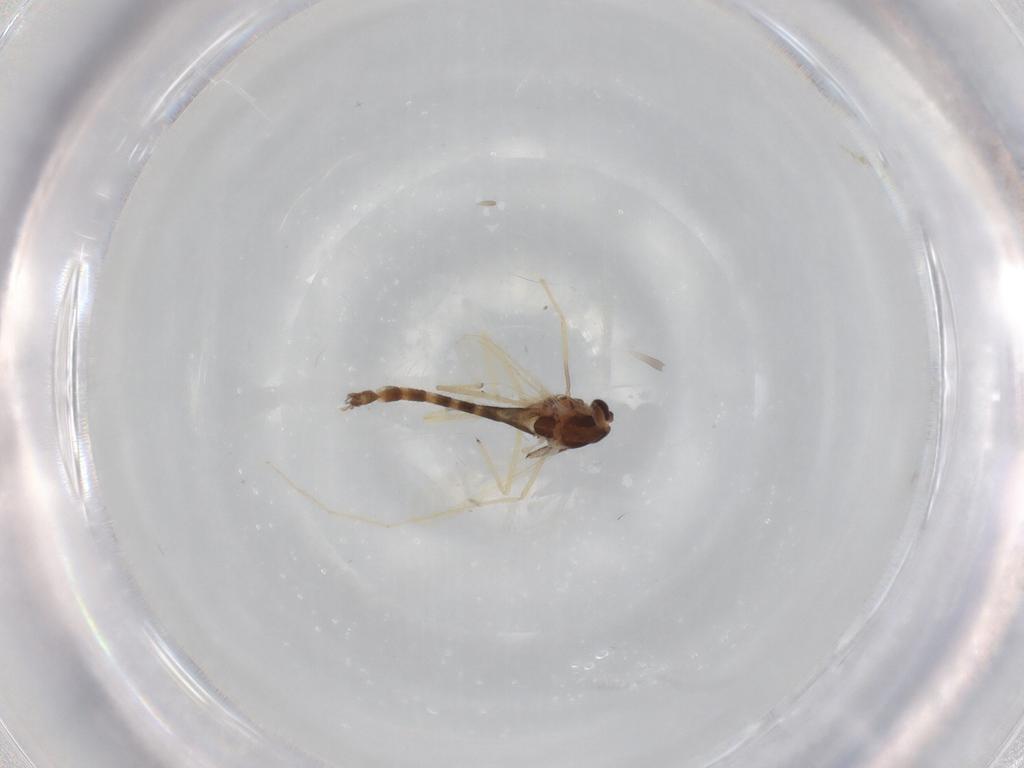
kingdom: Animalia
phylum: Arthropoda
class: Insecta
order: Diptera
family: Chironomidae
